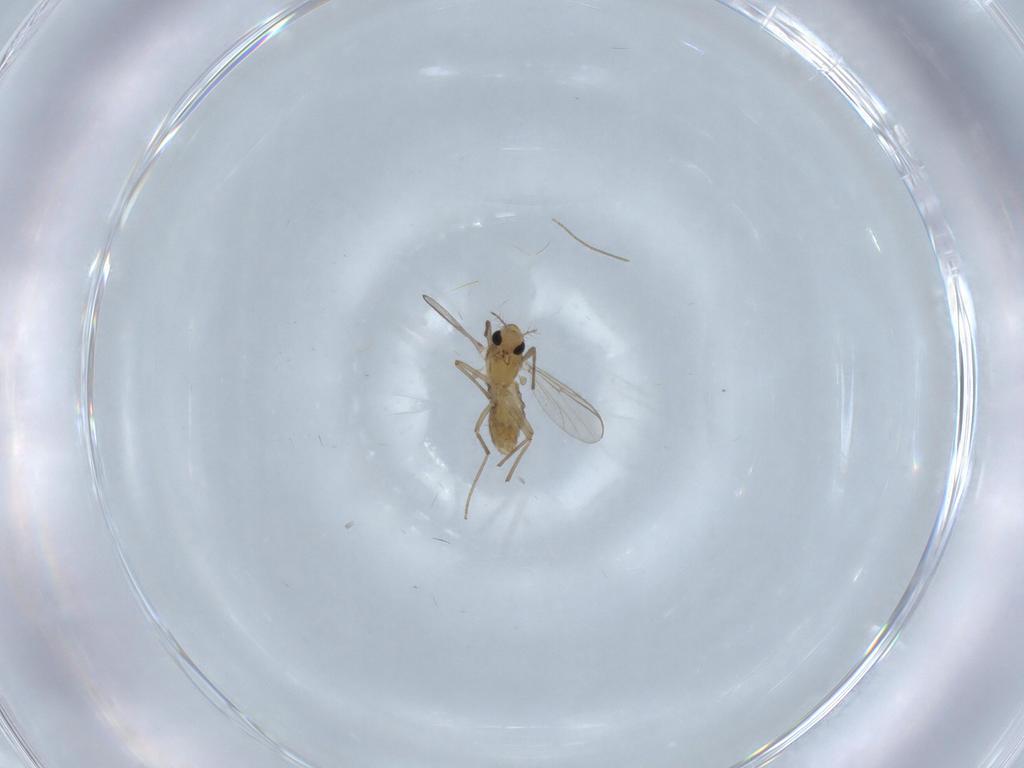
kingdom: Animalia
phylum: Arthropoda
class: Insecta
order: Diptera
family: Chironomidae
